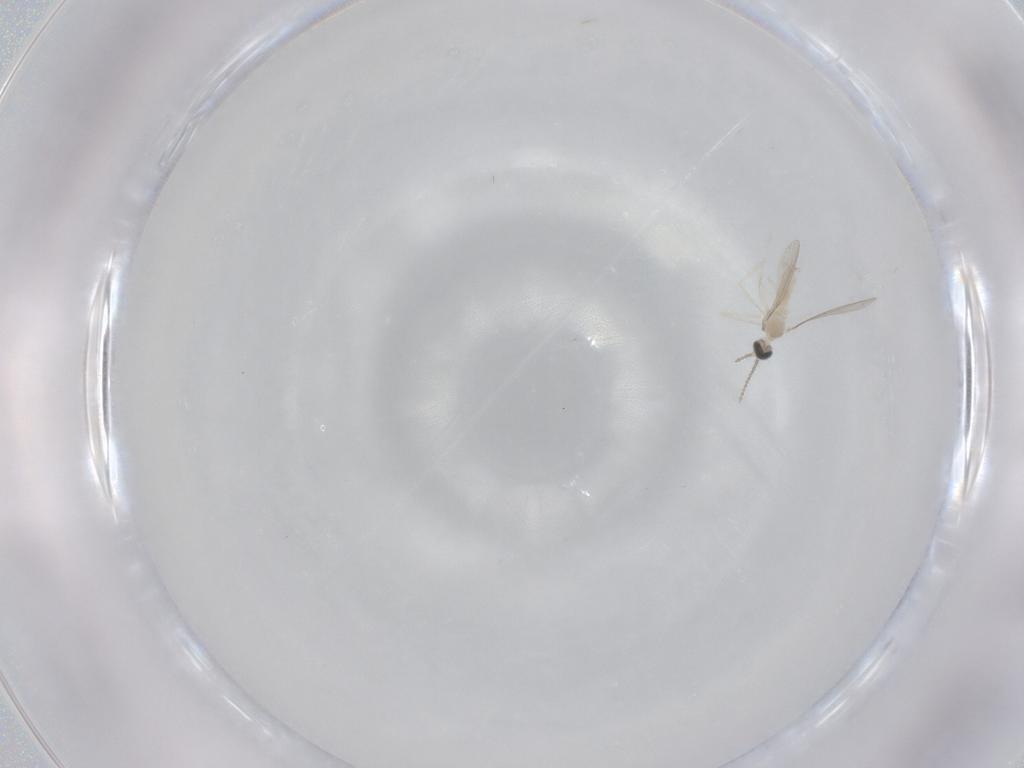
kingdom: Animalia
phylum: Arthropoda
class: Insecta
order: Diptera
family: Cecidomyiidae
